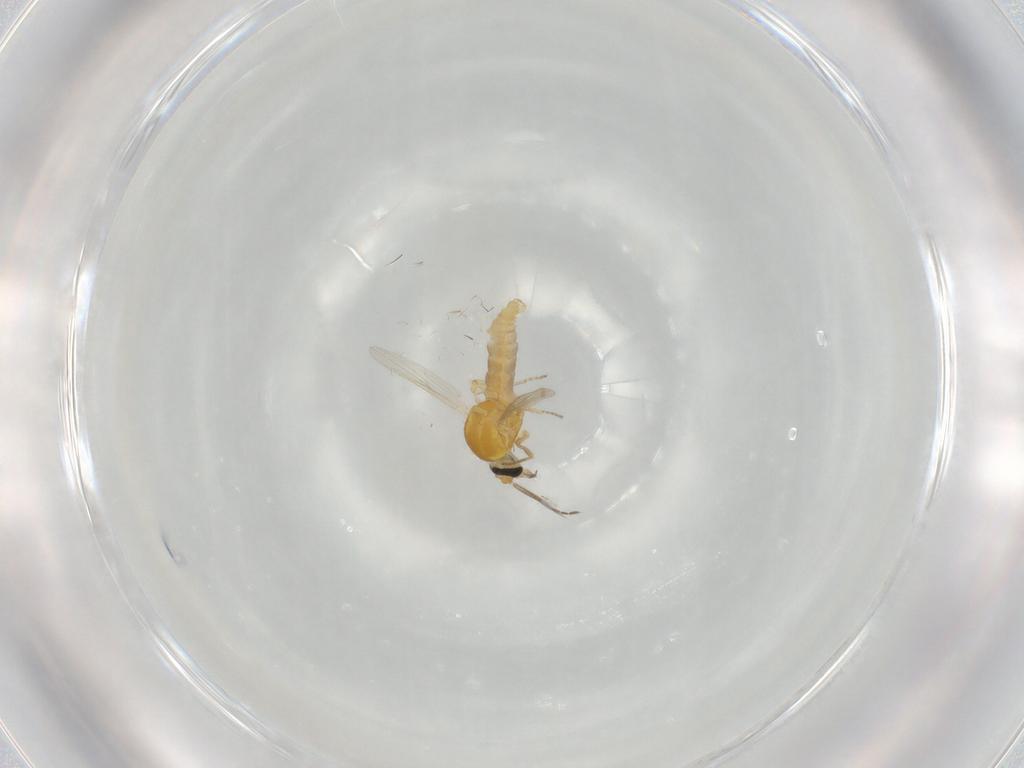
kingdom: Animalia
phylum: Arthropoda
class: Insecta
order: Diptera
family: Ceratopogonidae
